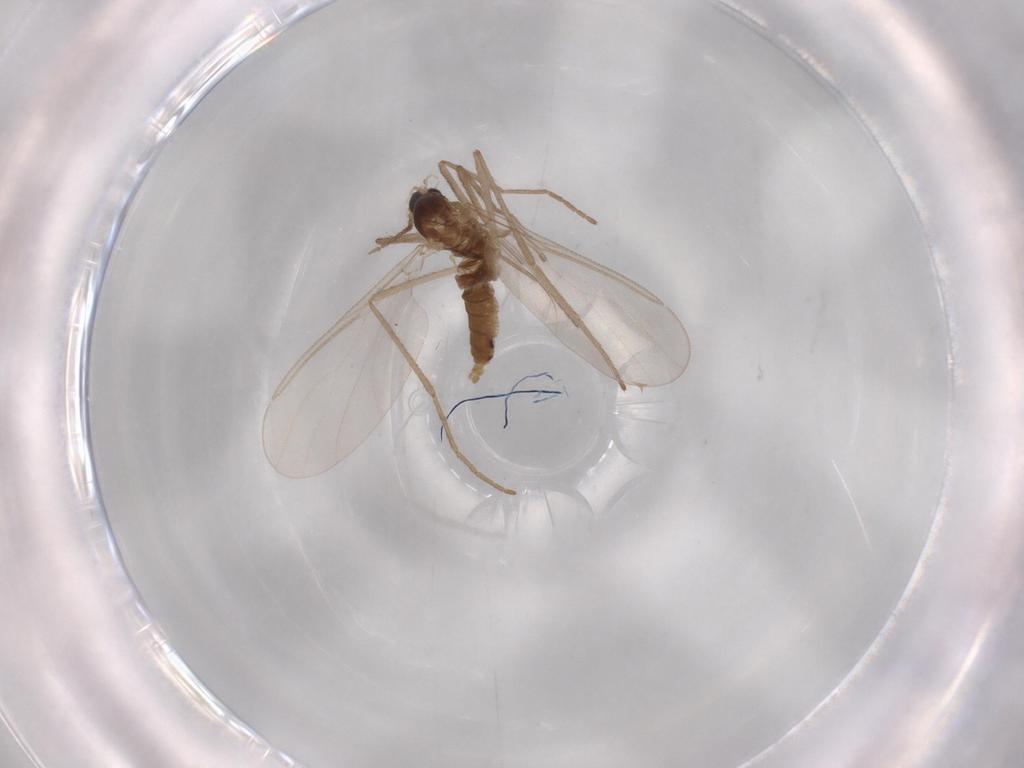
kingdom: Animalia
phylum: Arthropoda
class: Insecta
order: Diptera
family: Cecidomyiidae
